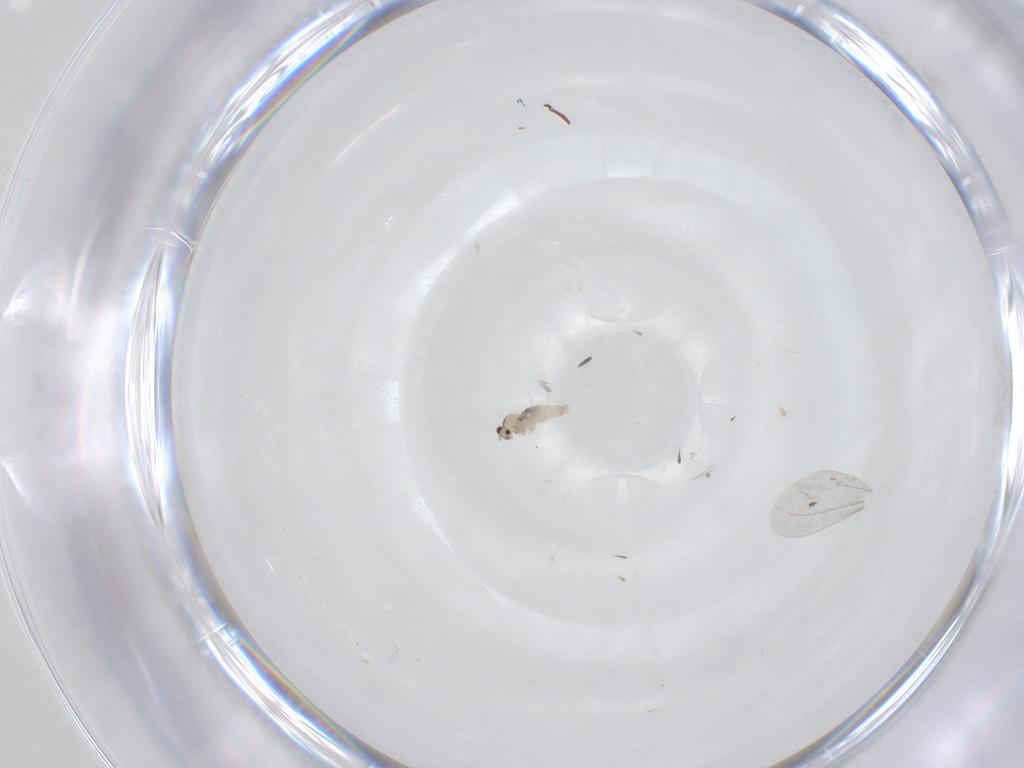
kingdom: Animalia
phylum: Arthropoda
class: Insecta
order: Diptera
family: Cecidomyiidae
